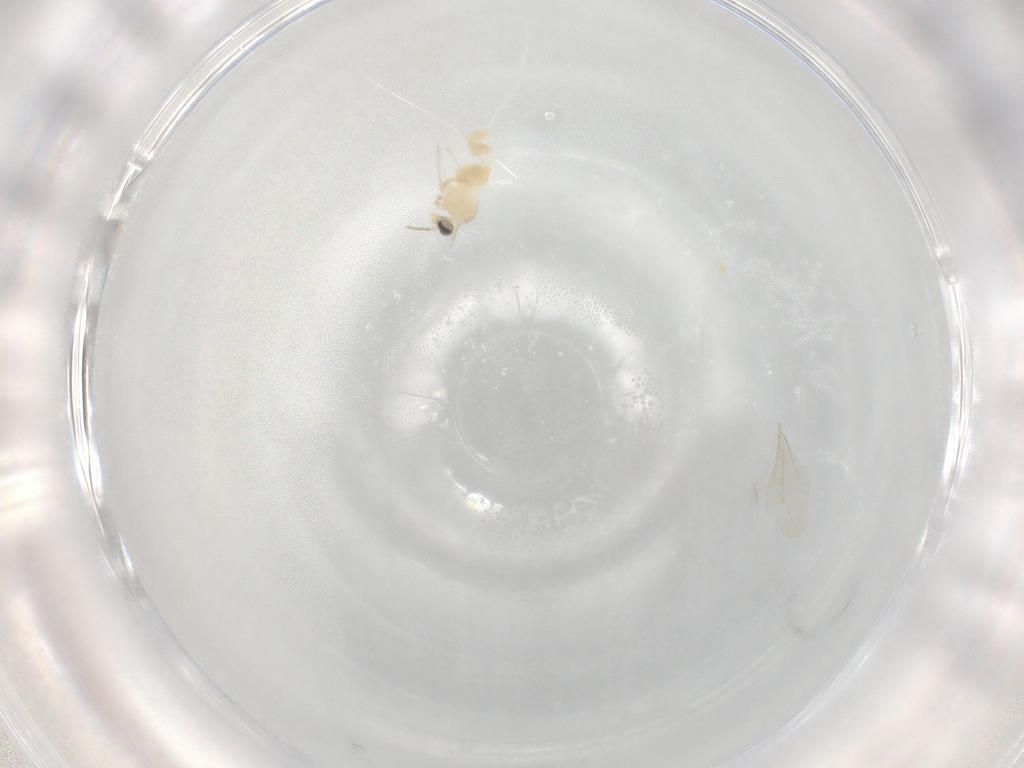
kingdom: Animalia
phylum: Arthropoda
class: Insecta
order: Diptera
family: Cecidomyiidae
